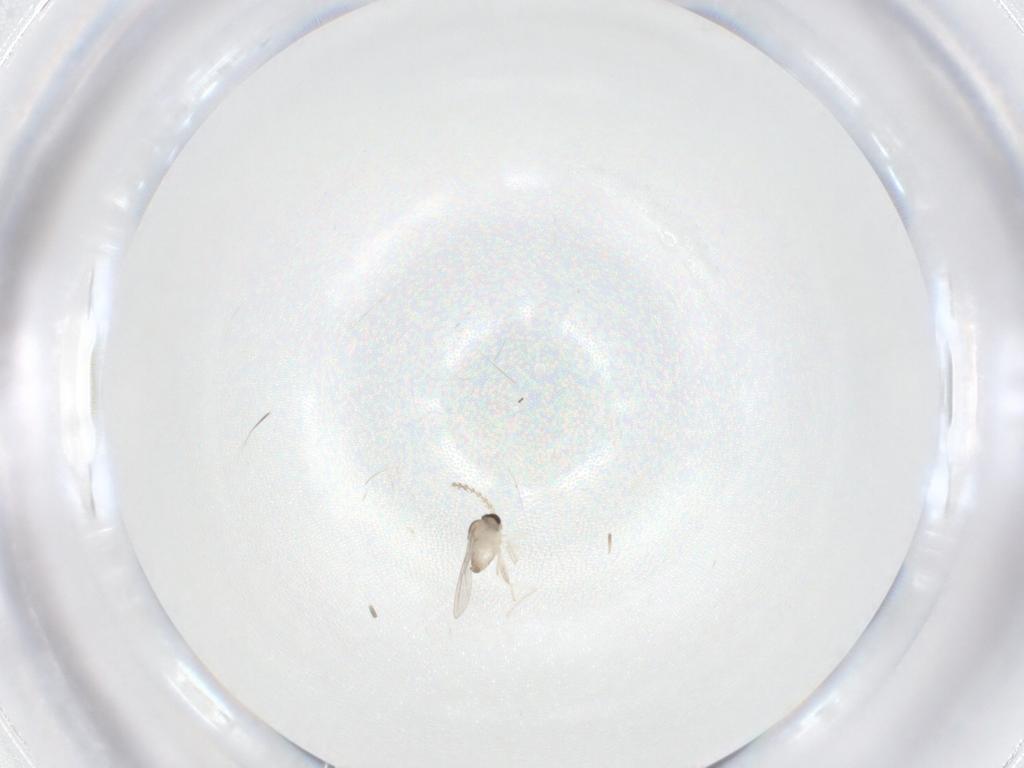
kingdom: Animalia
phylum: Arthropoda
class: Insecta
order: Diptera
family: Cecidomyiidae
